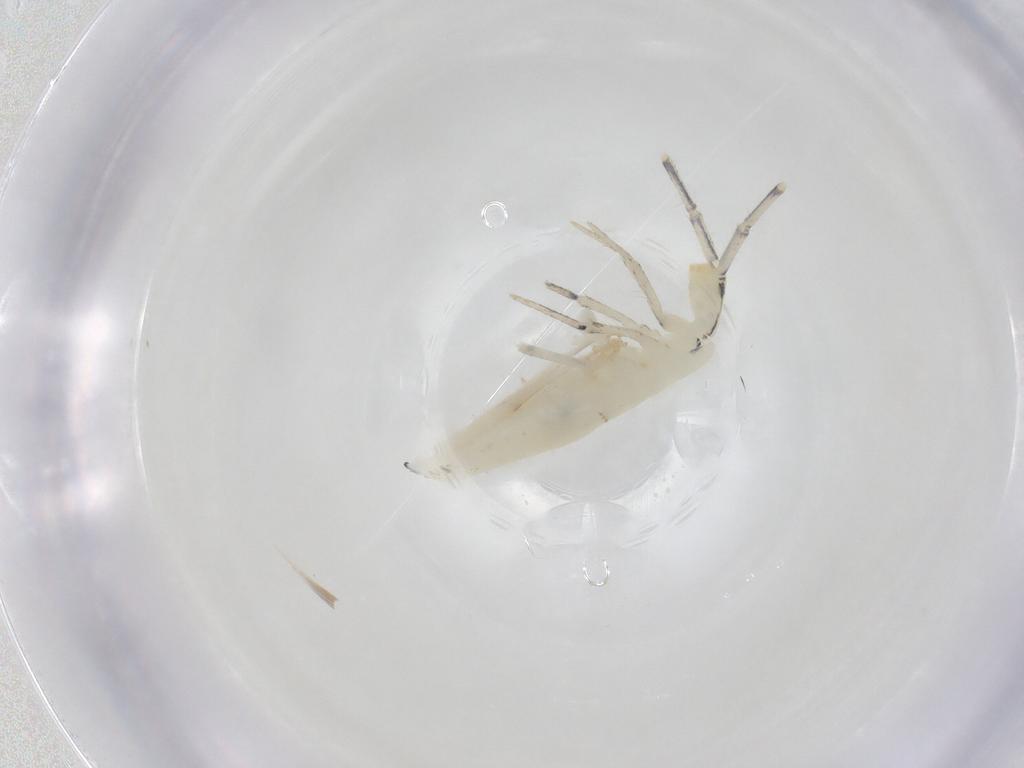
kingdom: Animalia
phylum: Arthropoda
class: Collembola
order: Entomobryomorpha
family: Entomobryidae
